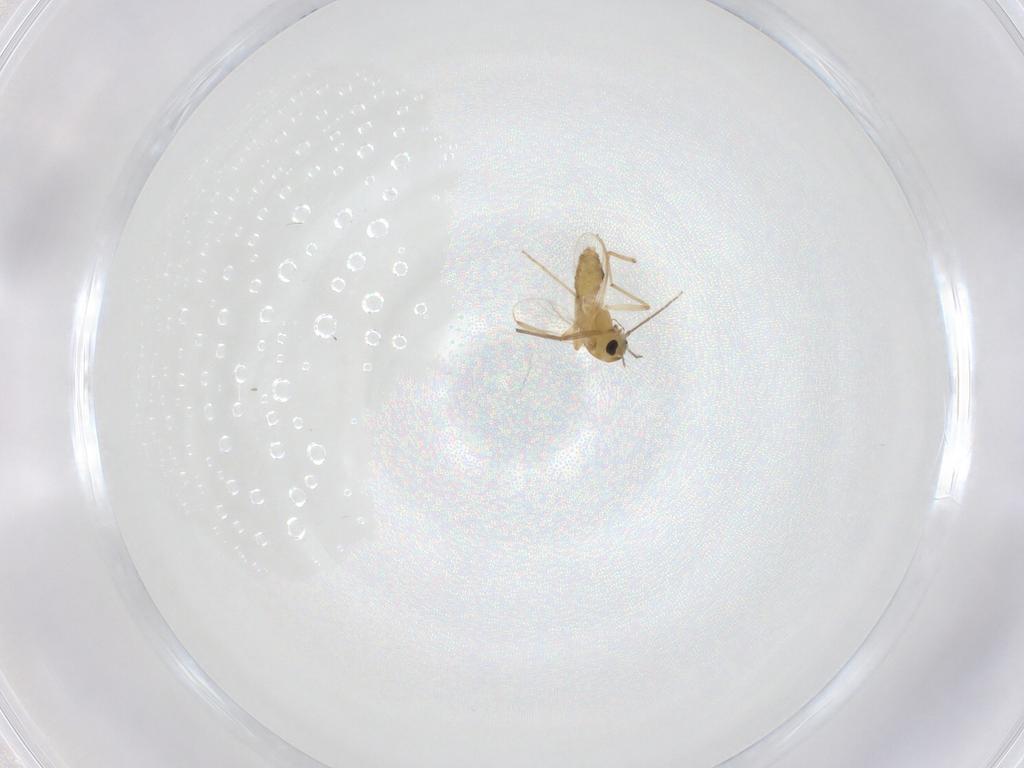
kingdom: Animalia
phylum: Arthropoda
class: Insecta
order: Diptera
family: Chironomidae
